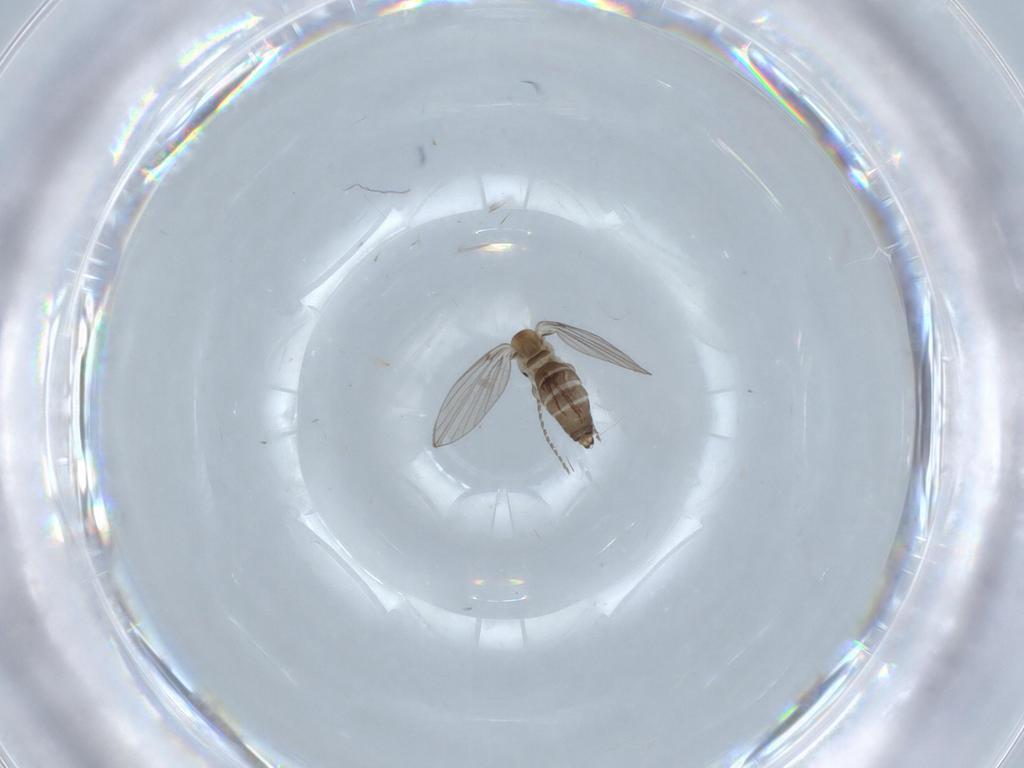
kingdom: Animalia
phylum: Arthropoda
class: Insecta
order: Diptera
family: Psychodidae
